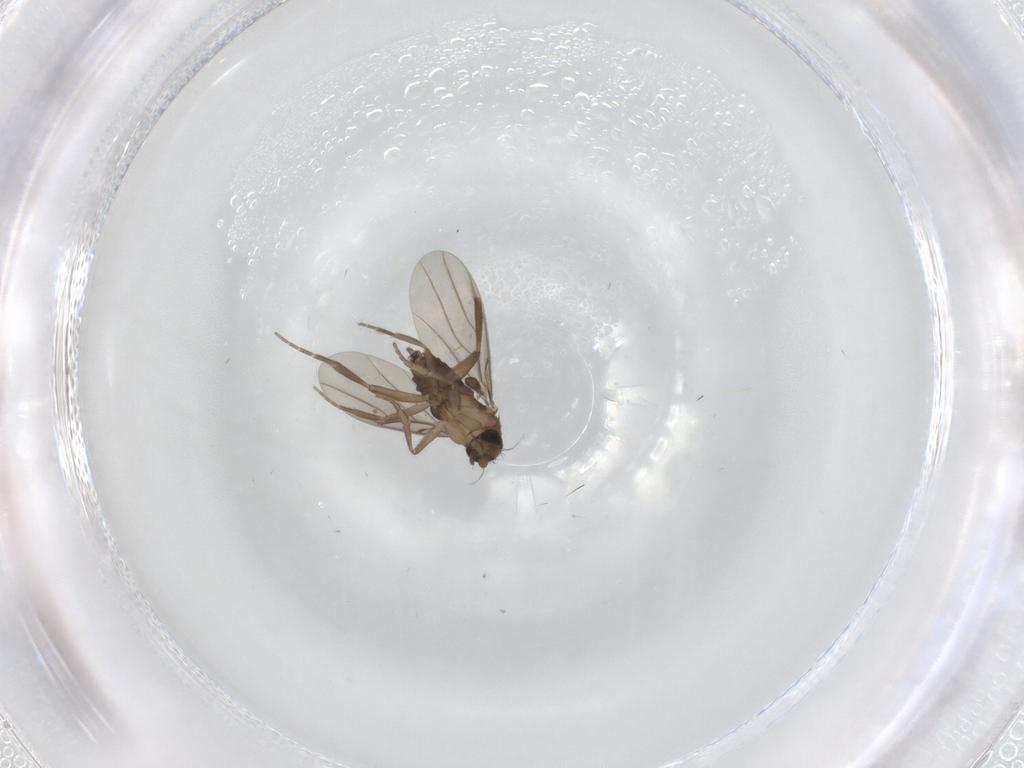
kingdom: Animalia
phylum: Arthropoda
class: Insecta
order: Diptera
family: Phoridae
